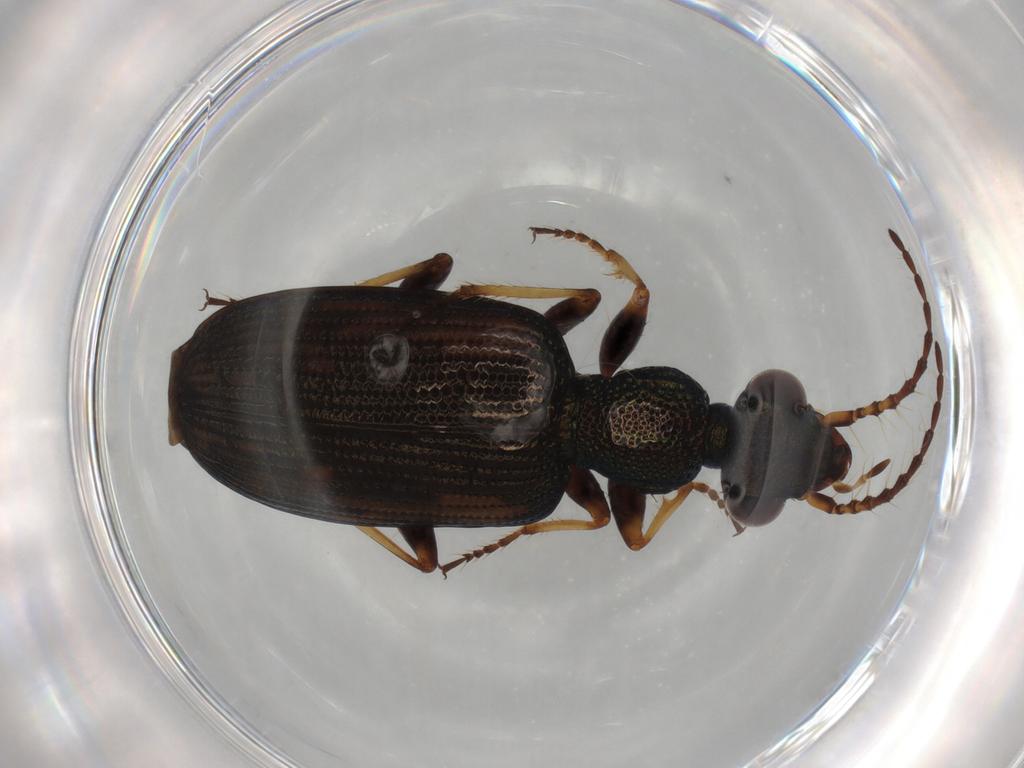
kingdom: Animalia
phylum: Arthropoda
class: Insecta
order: Coleoptera
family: Carabidae
